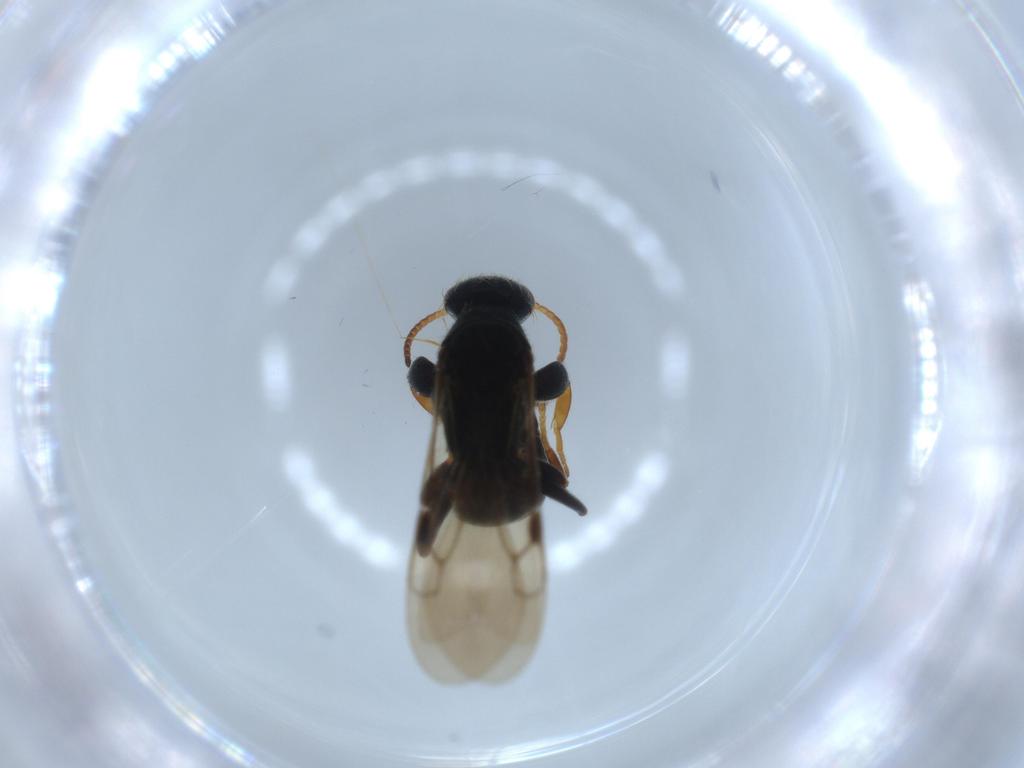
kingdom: Animalia
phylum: Arthropoda
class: Insecta
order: Hymenoptera
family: Bethylidae
